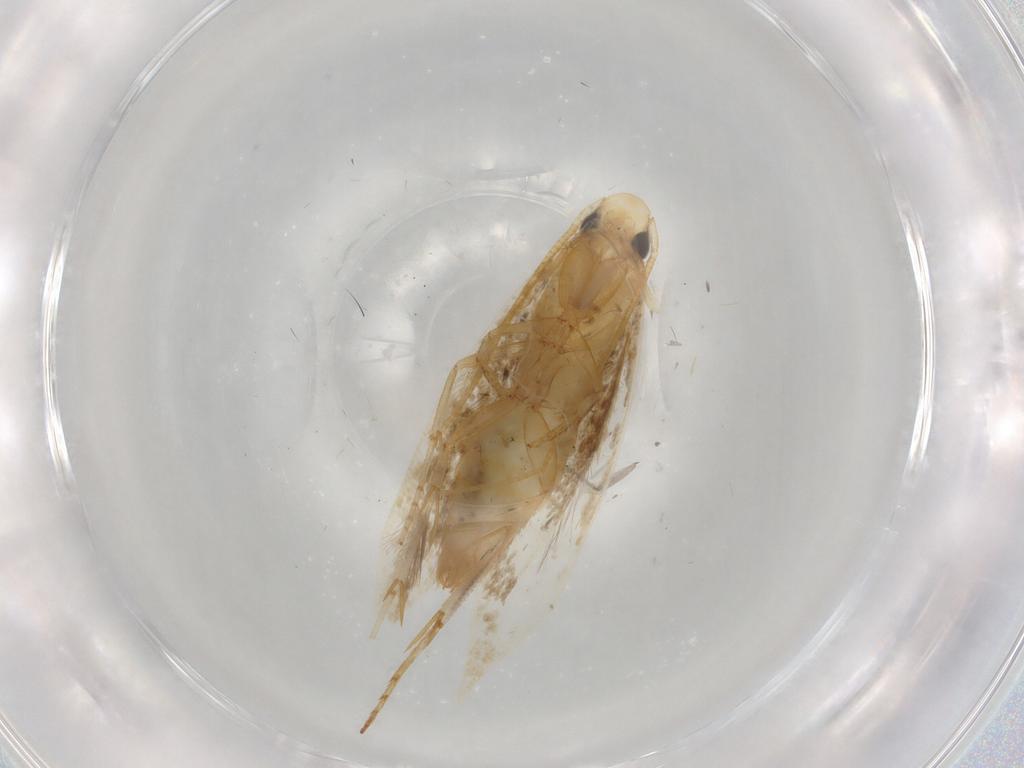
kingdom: Animalia
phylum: Arthropoda
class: Insecta
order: Lepidoptera
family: Tineidae
